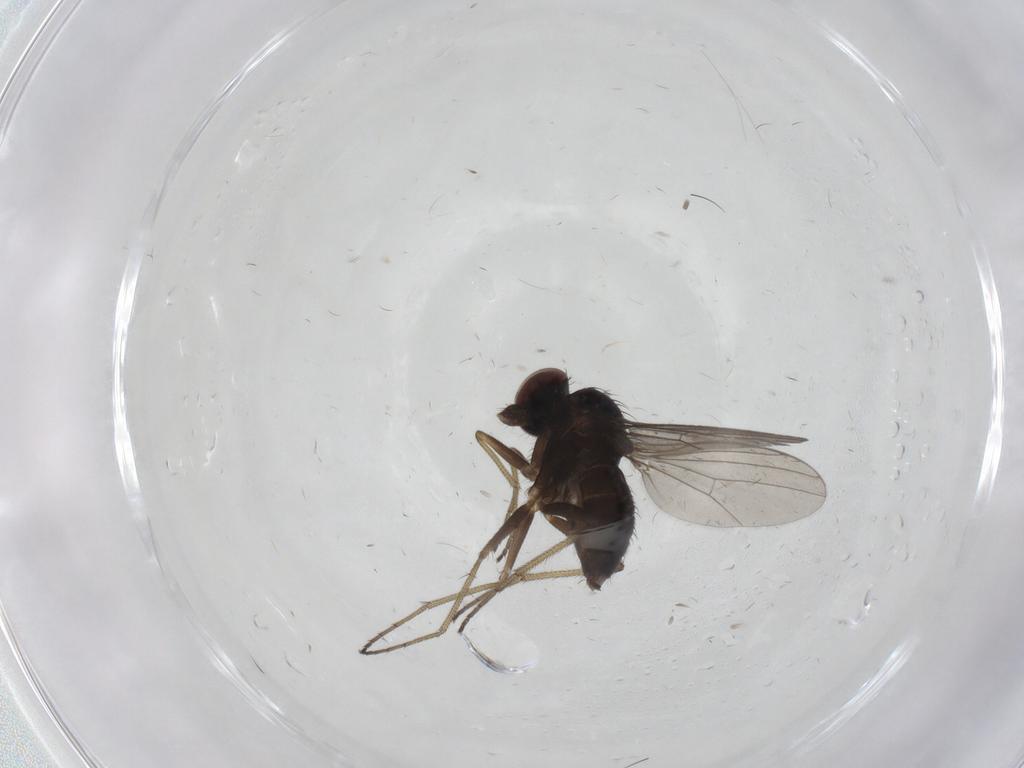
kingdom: Animalia
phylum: Arthropoda
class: Insecta
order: Diptera
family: Dolichopodidae
